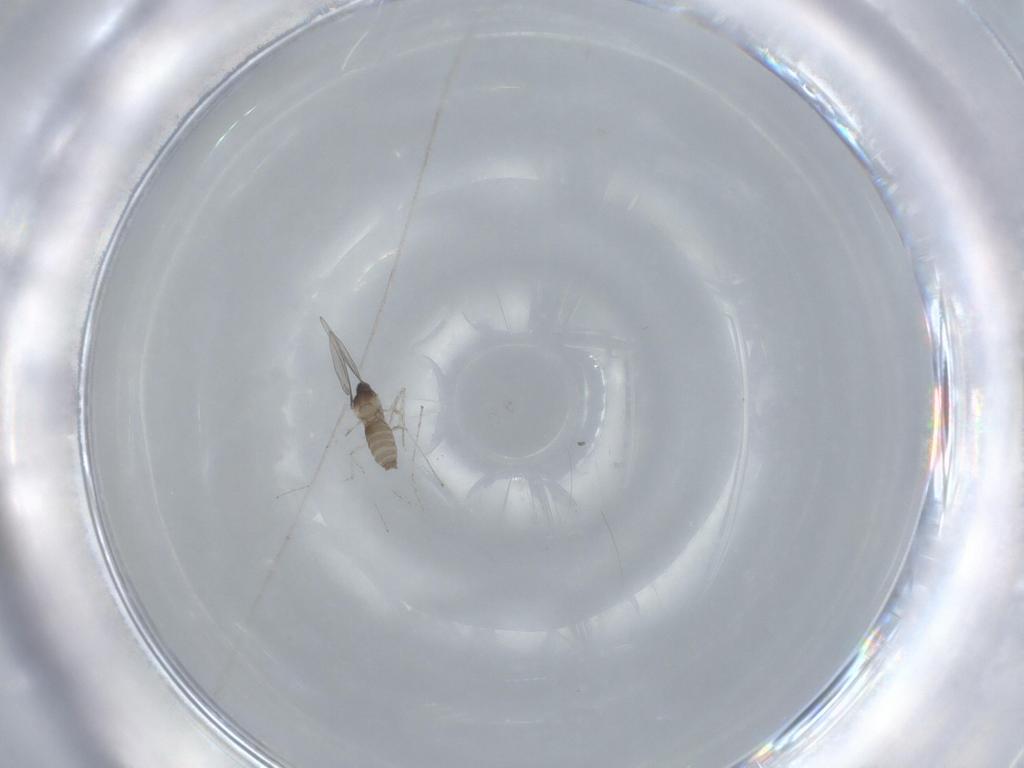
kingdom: Animalia
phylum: Arthropoda
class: Insecta
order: Diptera
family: Cecidomyiidae
